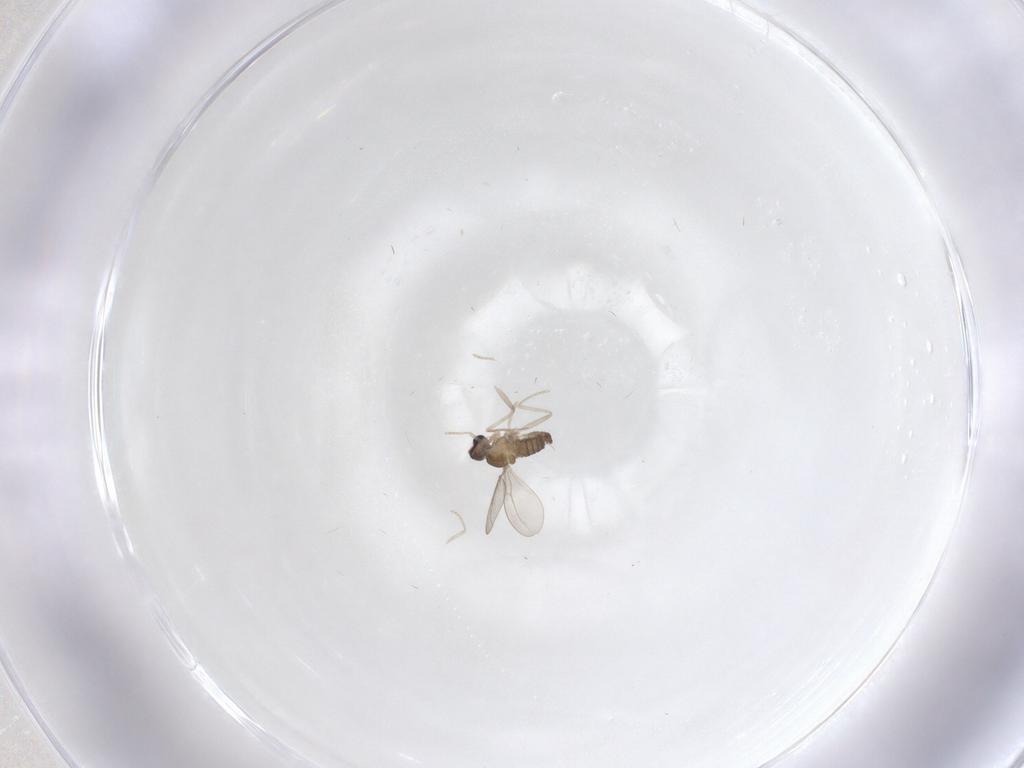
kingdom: Animalia
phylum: Arthropoda
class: Insecta
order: Diptera
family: Cecidomyiidae
